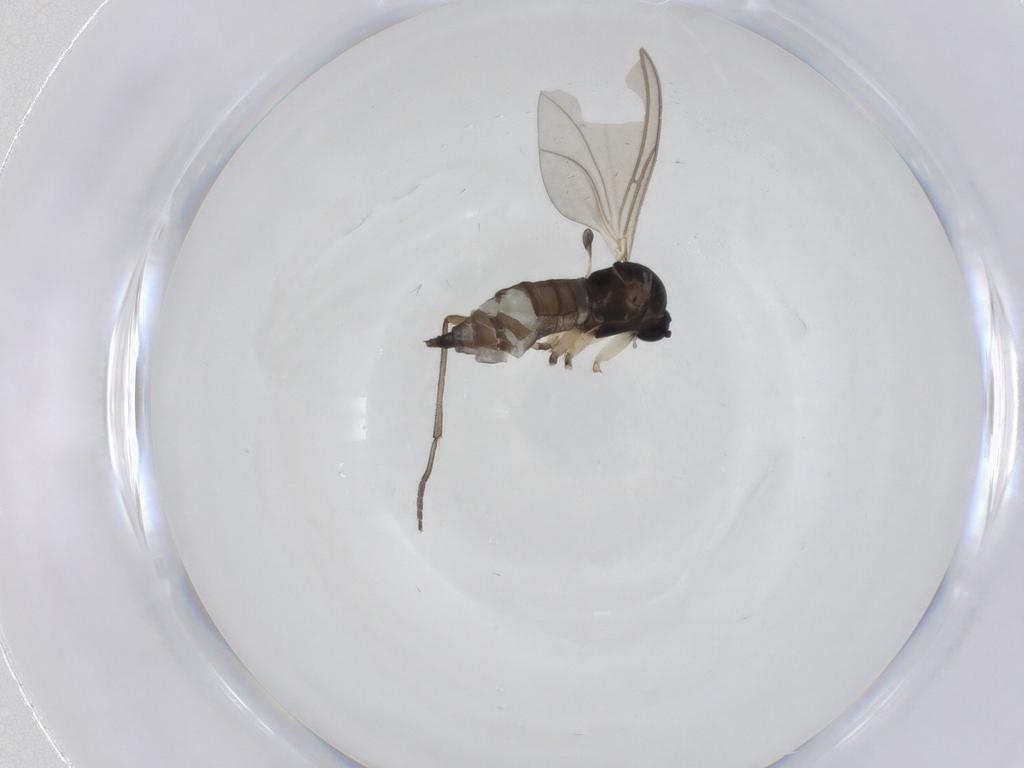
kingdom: Animalia
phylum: Arthropoda
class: Insecta
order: Diptera
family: Sciaridae
